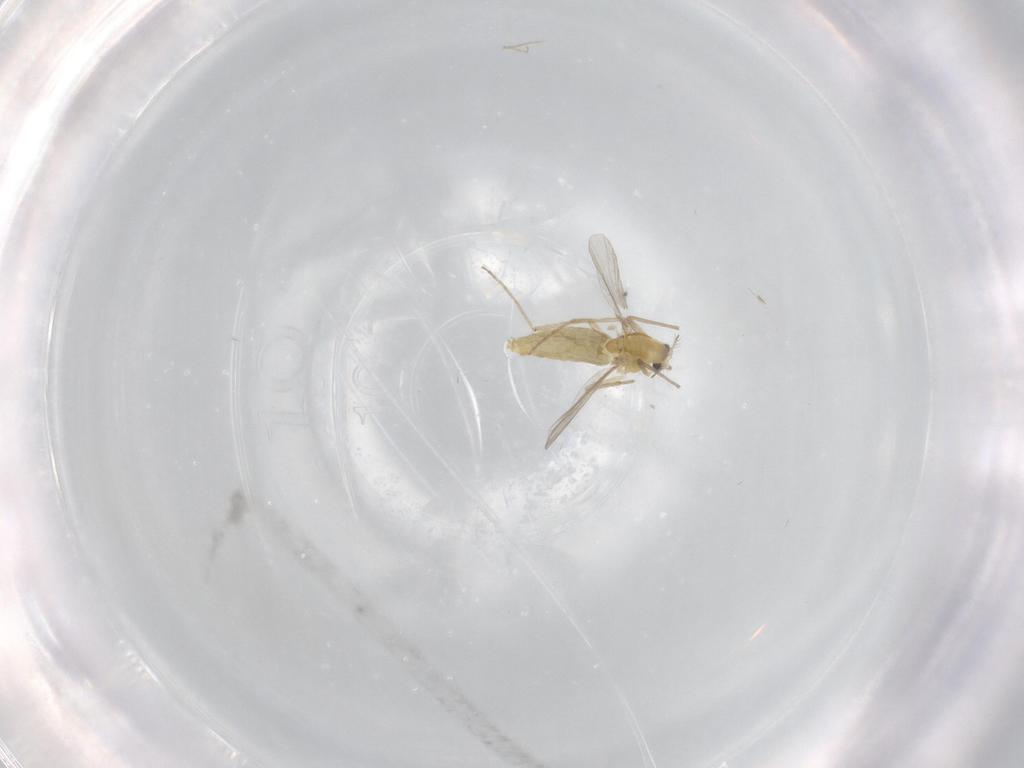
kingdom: Animalia
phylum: Arthropoda
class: Insecta
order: Diptera
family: Chironomidae
